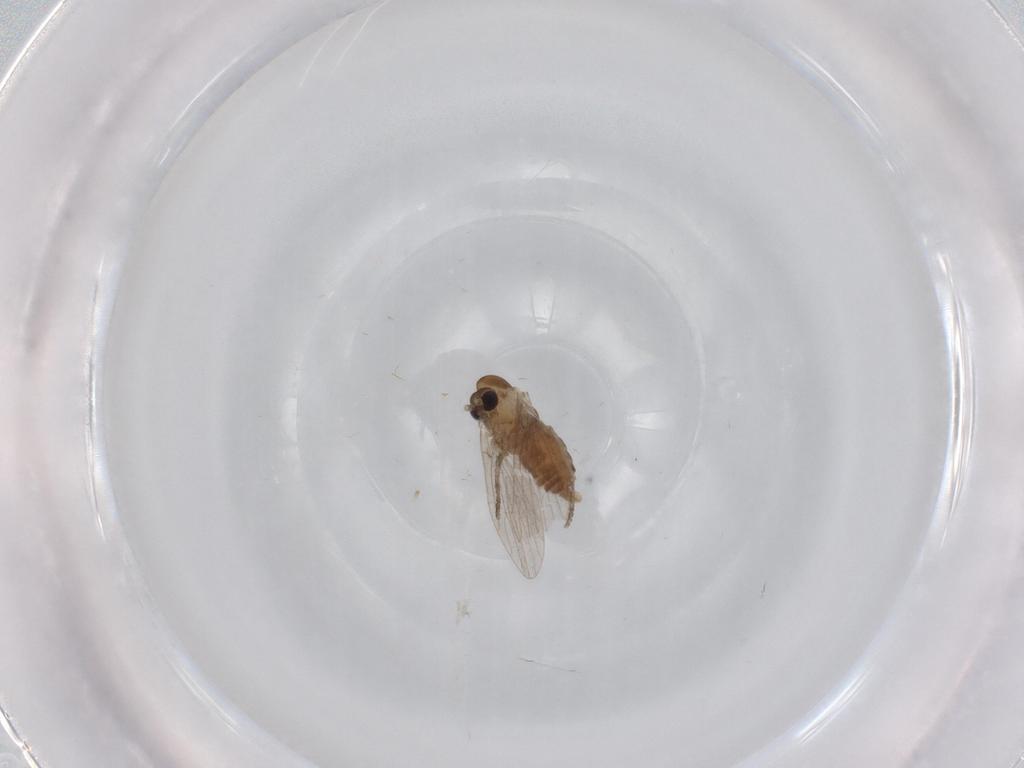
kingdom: Animalia
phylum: Arthropoda
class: Insecta
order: Diptera
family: Psychodidae
